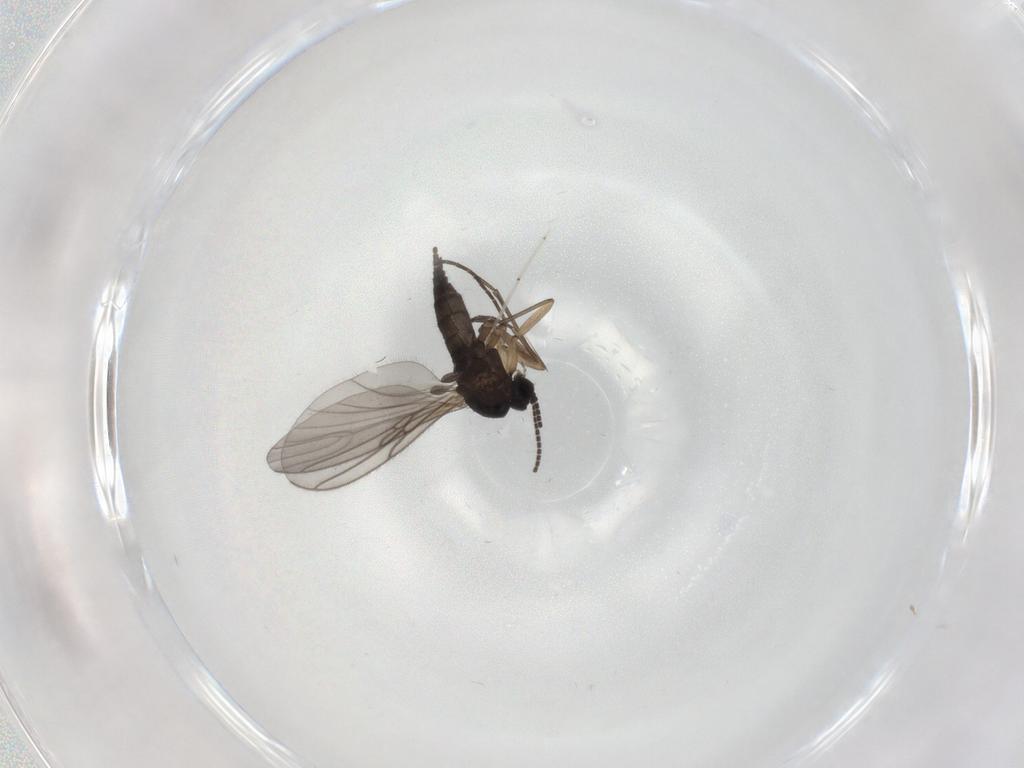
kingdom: Animalia
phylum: Arthropoda
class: Insecta
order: Diptera
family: Sciaridae
